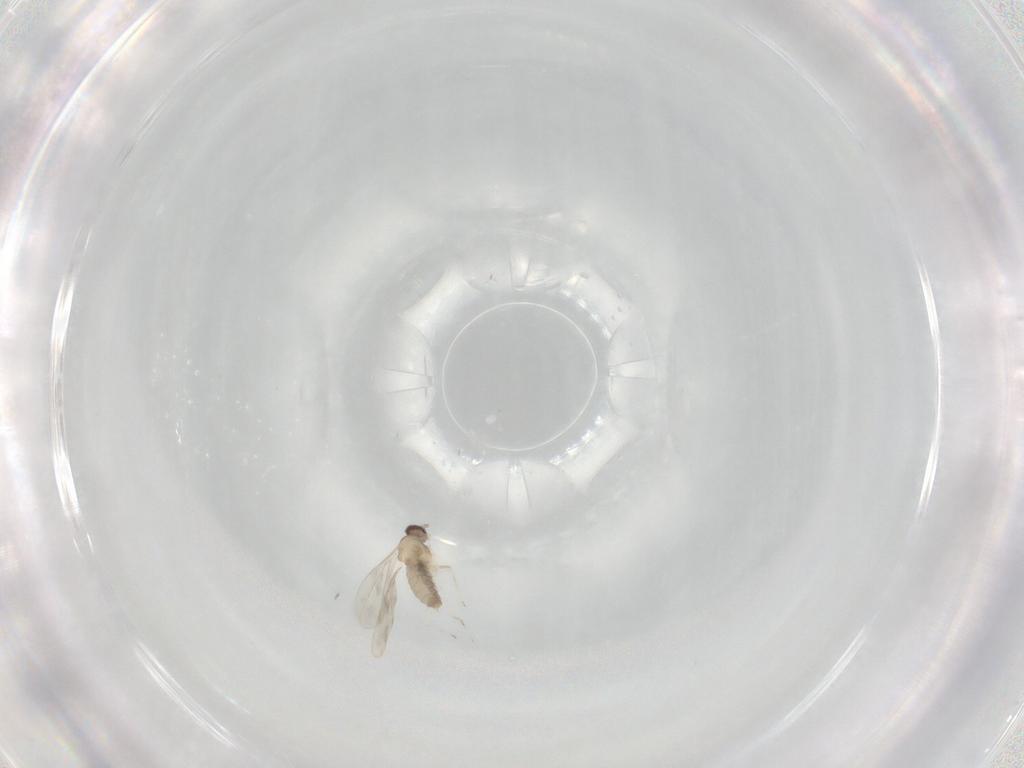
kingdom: Animalia
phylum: Arthropoda
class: Insecta
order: Diptera
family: Cecidomyiidae
